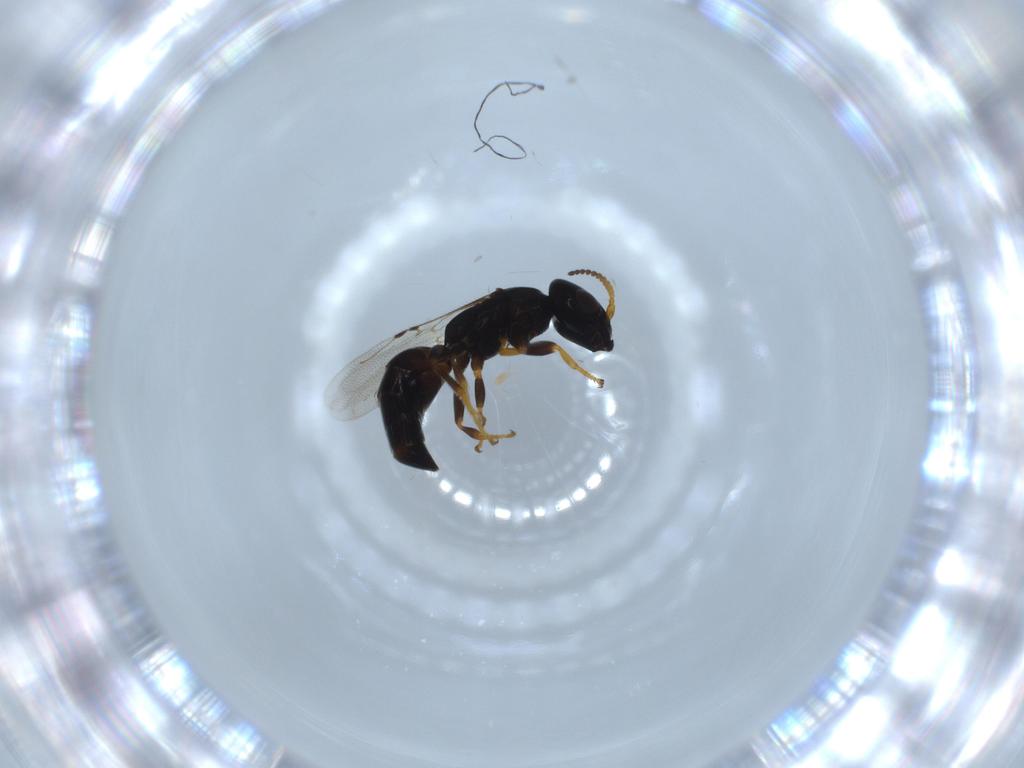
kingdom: Animalia
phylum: Arthropoda
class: Insecta
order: Hymenoptera
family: Bethylidae
